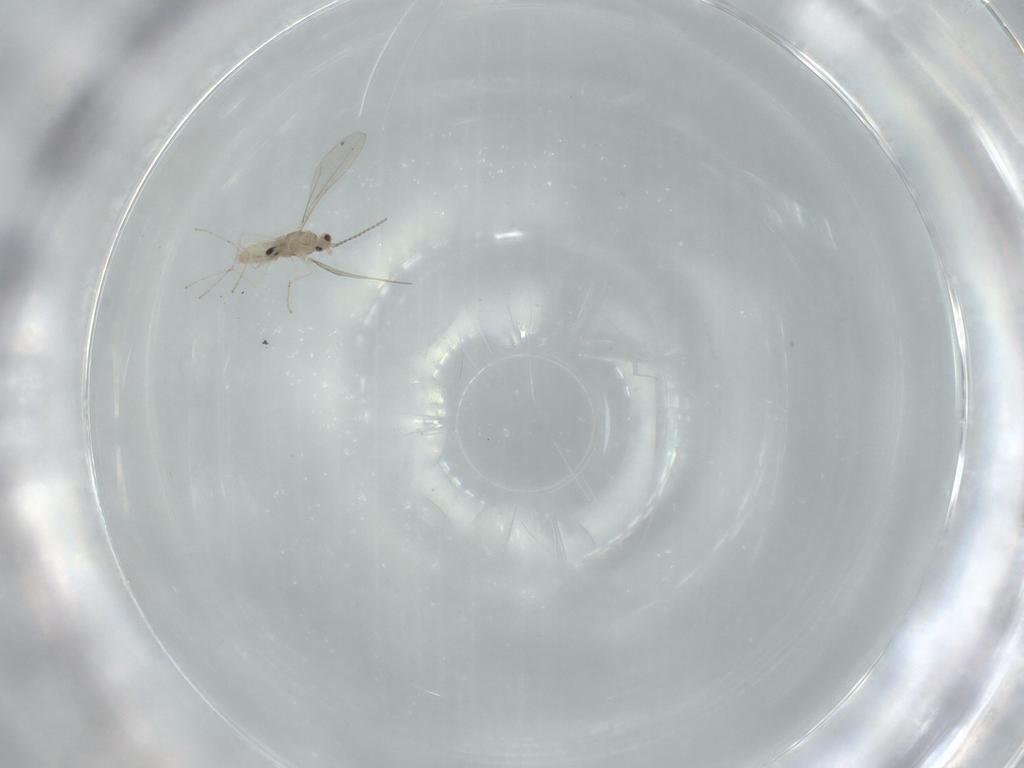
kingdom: Animalia
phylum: Arthropoda
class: Insecta
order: Diptera
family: Cecidomyiidae
